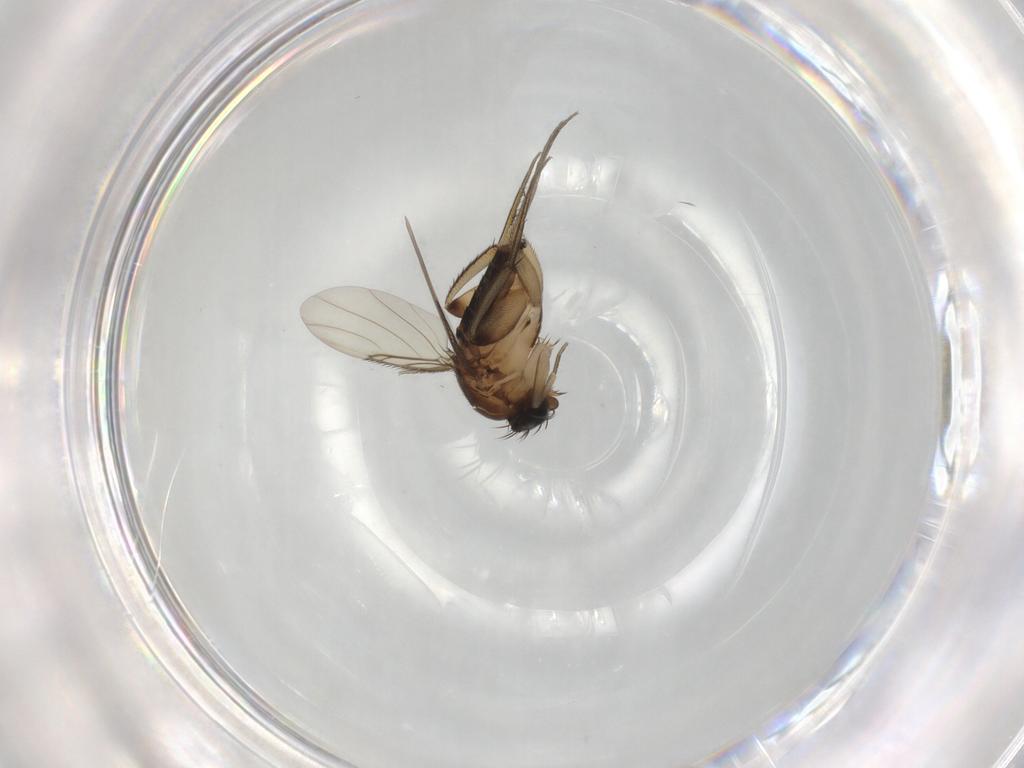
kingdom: Animalia
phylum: Arthropoda
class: Insecta
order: Diptera
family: Phoridae
